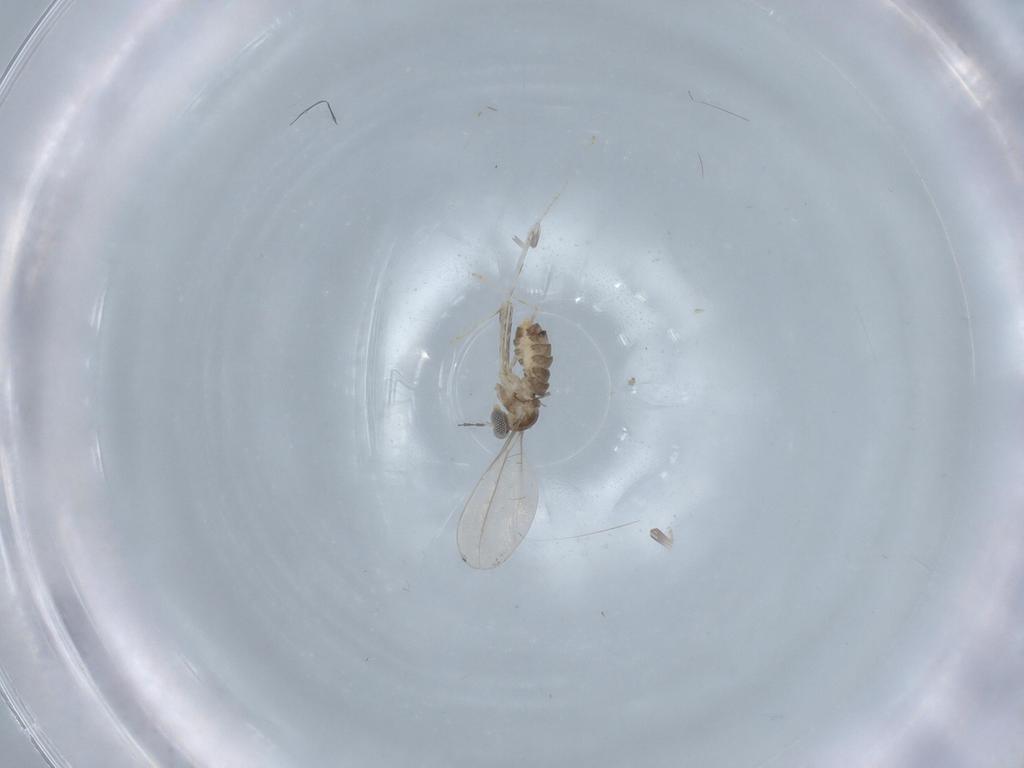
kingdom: Animalia
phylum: Arthropoda
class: Insecta
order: Diptera
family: Cecidomyiidae
